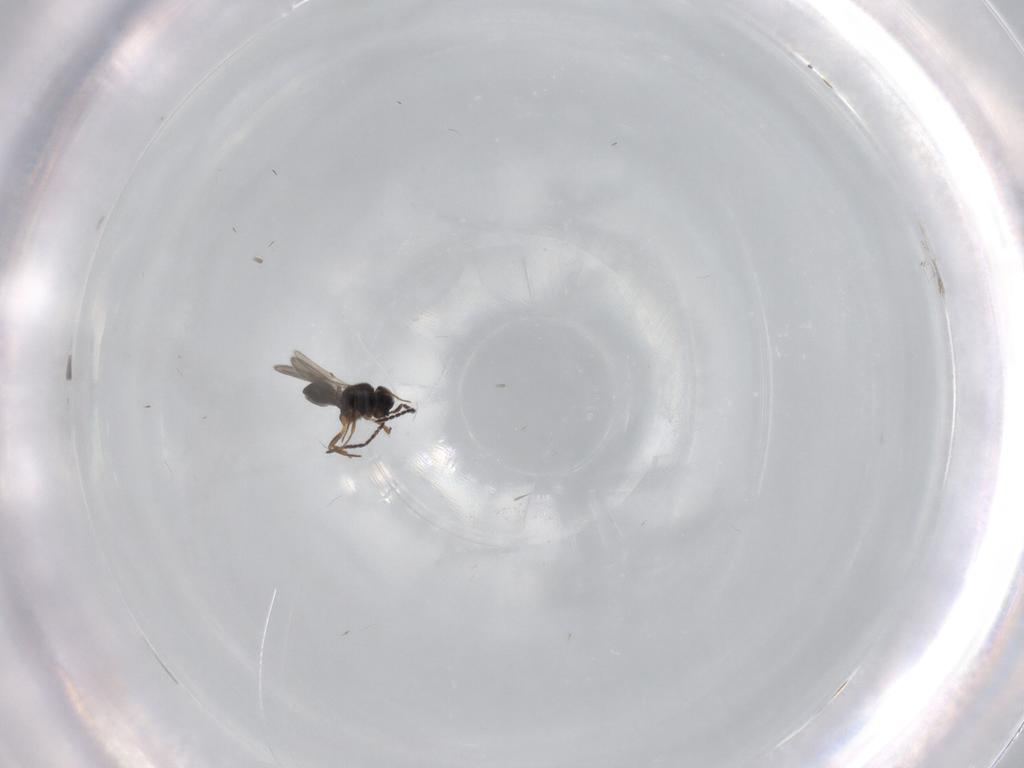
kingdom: Animalia
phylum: Arthropoda
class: Insecta
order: Hymenoptera
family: Scelionidae
